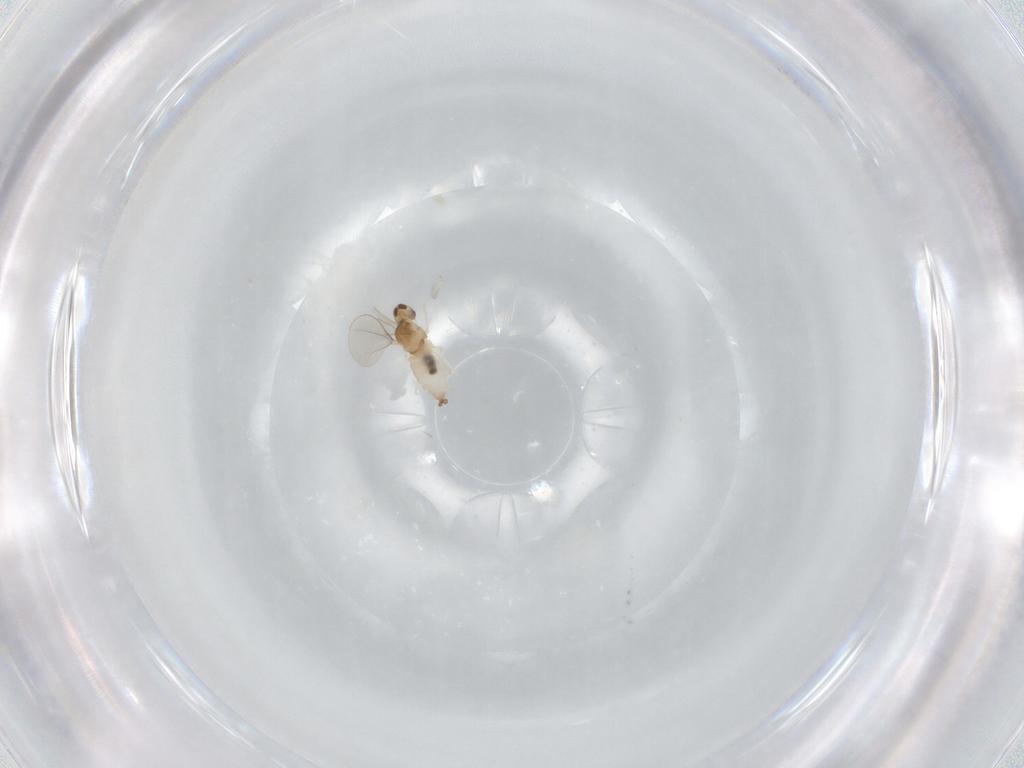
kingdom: Animalia
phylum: Arthropoda
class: Insecta
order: Diptera
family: Cecidomyiidae
